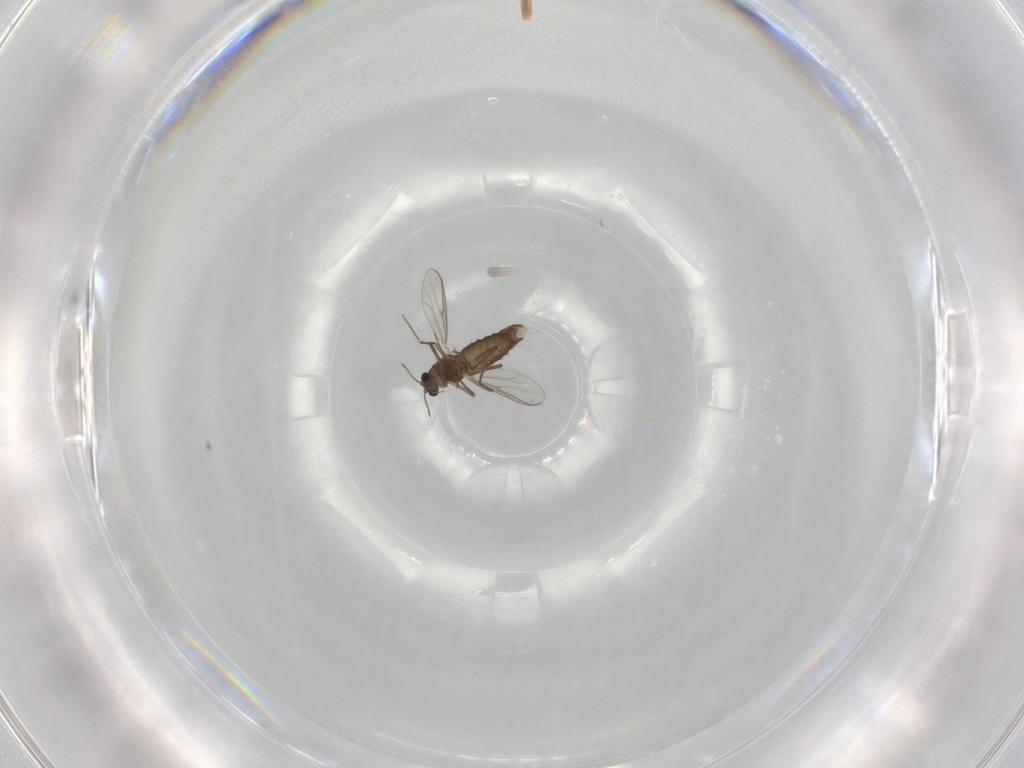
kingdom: Animalia
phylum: Arthropoda
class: Insecta
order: Diptera
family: Chironomidae
